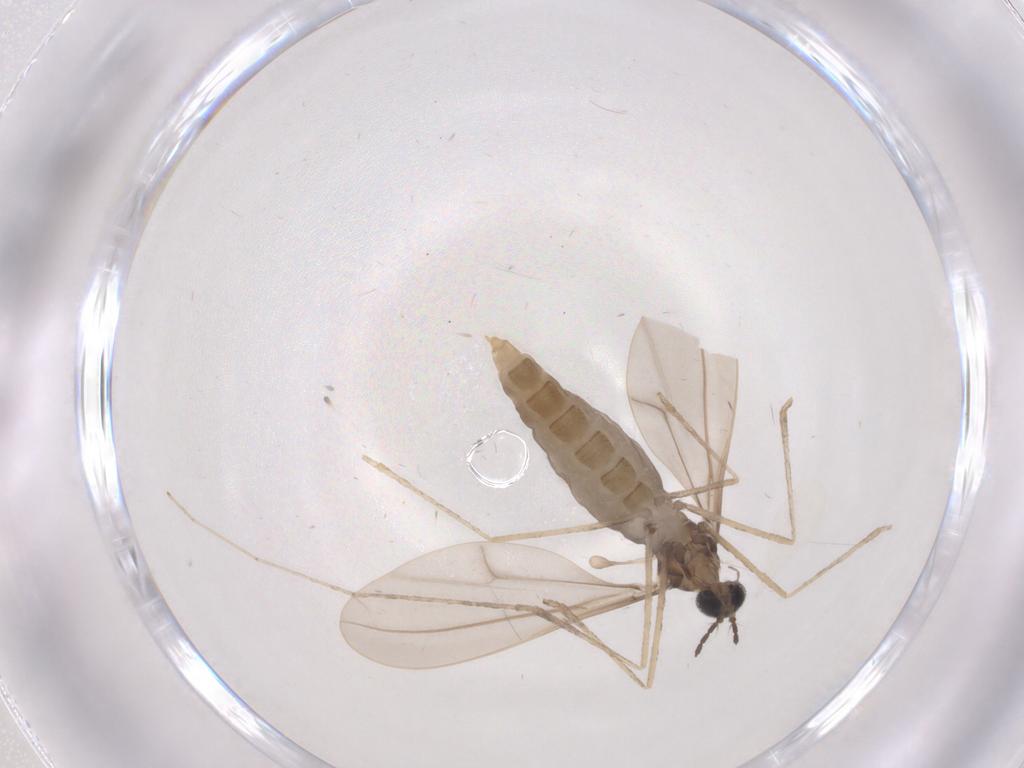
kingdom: Animalia
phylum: Arthropoda
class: Insecta
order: Diptera
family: Cecidomyiidae
